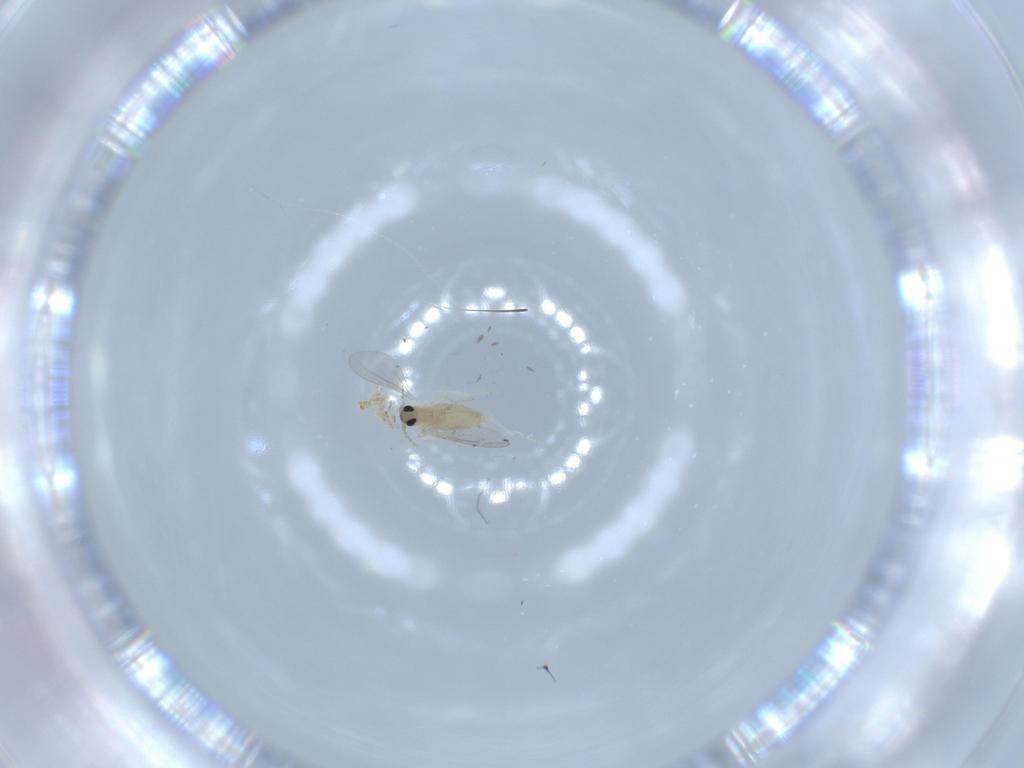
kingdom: Animalia
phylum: Arthropoda
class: Insecta
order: Diptera
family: Cecidomyiidae
